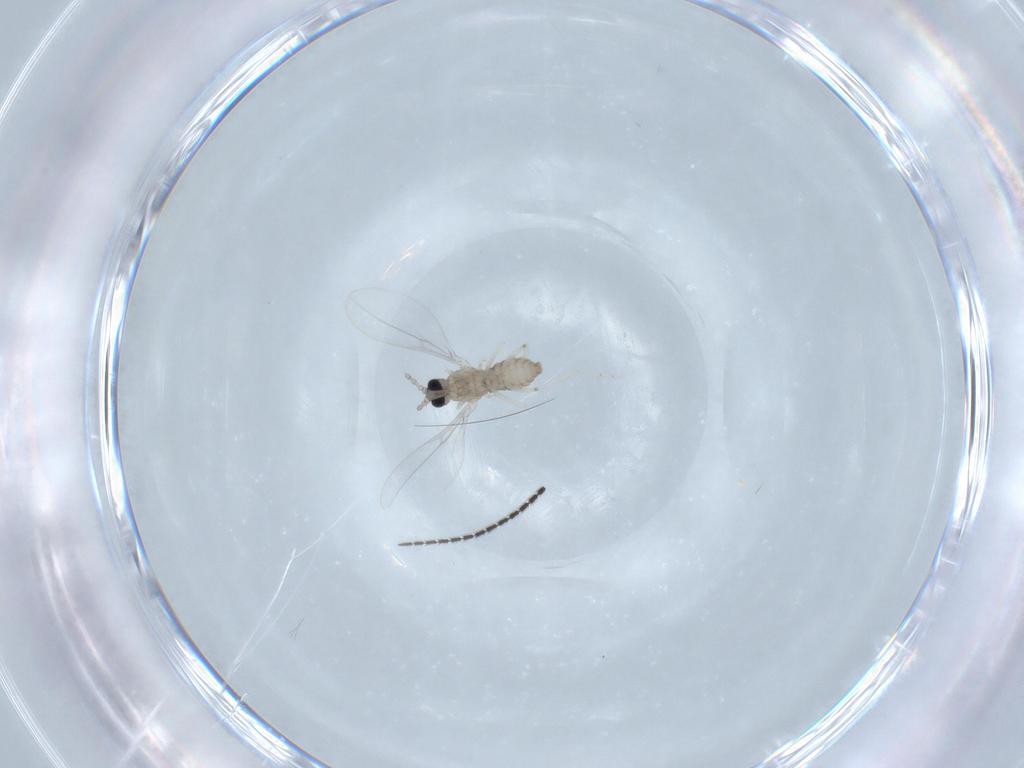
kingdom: Animalia
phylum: Arthropoda
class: Insecta
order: Diptera
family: Cecidomyiidae
